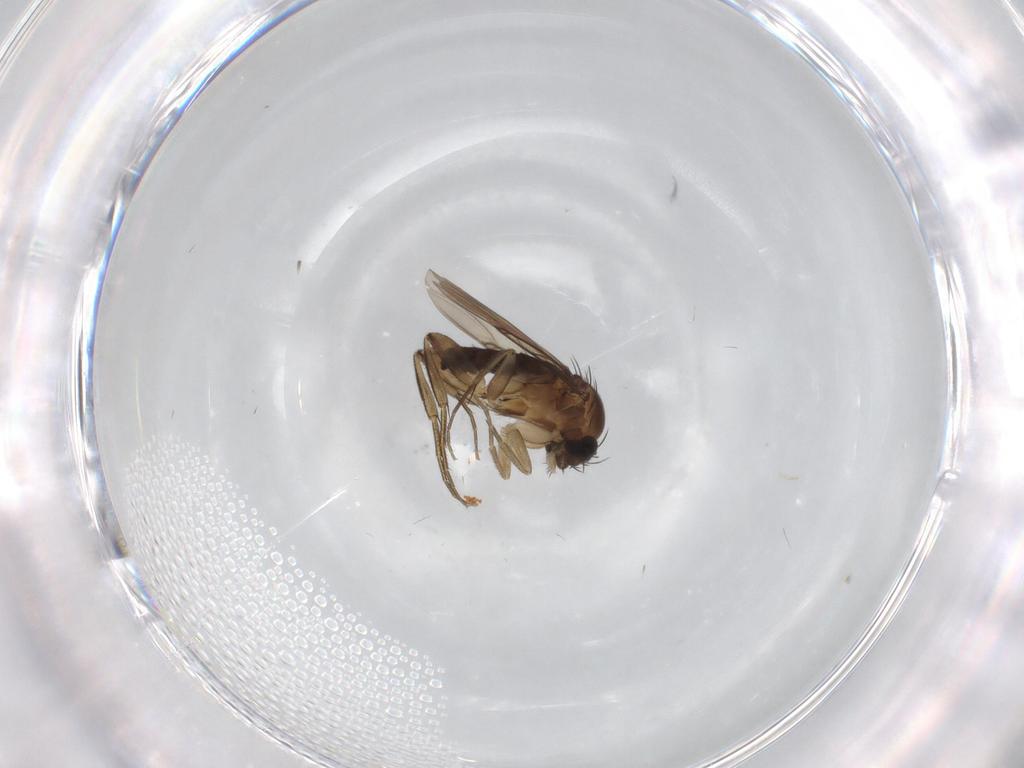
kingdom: Animalia
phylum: Arthropoda
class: Insecta
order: Diptera
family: Phoridae
